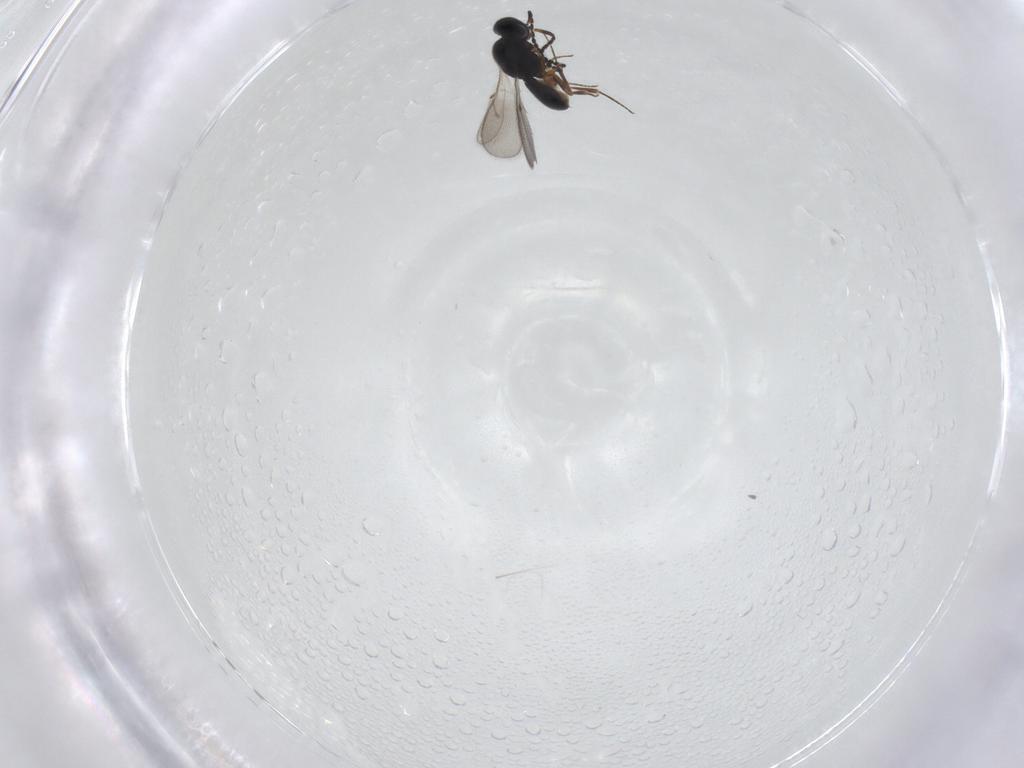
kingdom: Animalia
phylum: Arthropoda
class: Insecta
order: Hymenoptera
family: Scelionidae
